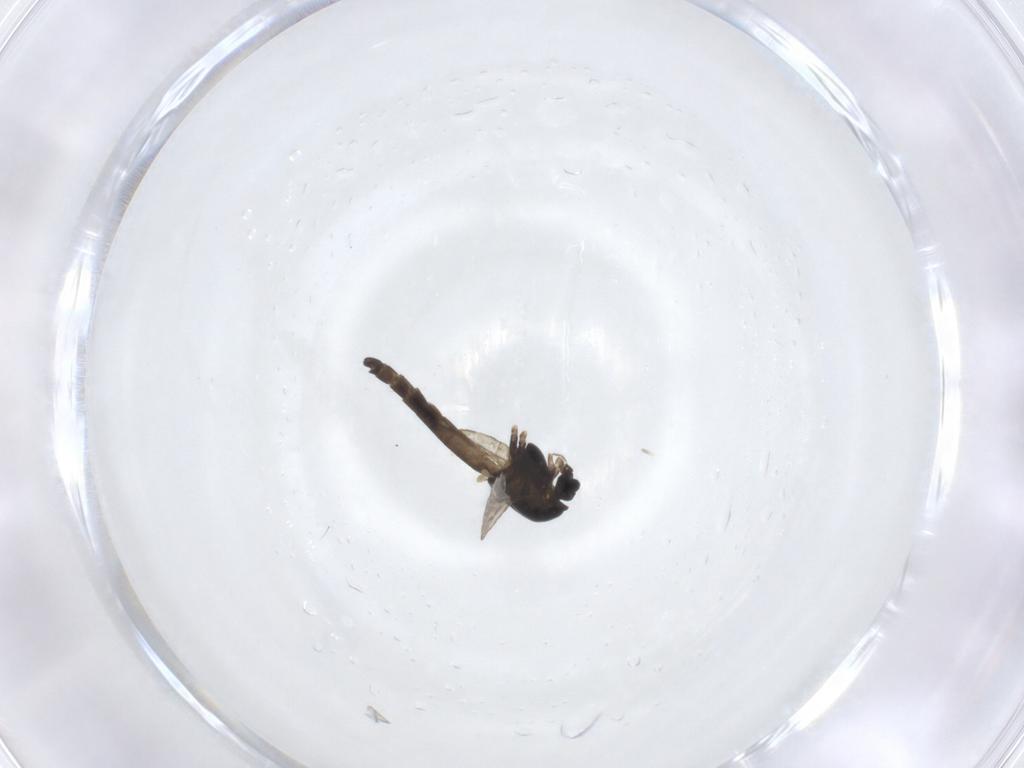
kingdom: Animalia
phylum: Arthropoda
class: Insecta
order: Diptera
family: Chironomidae
